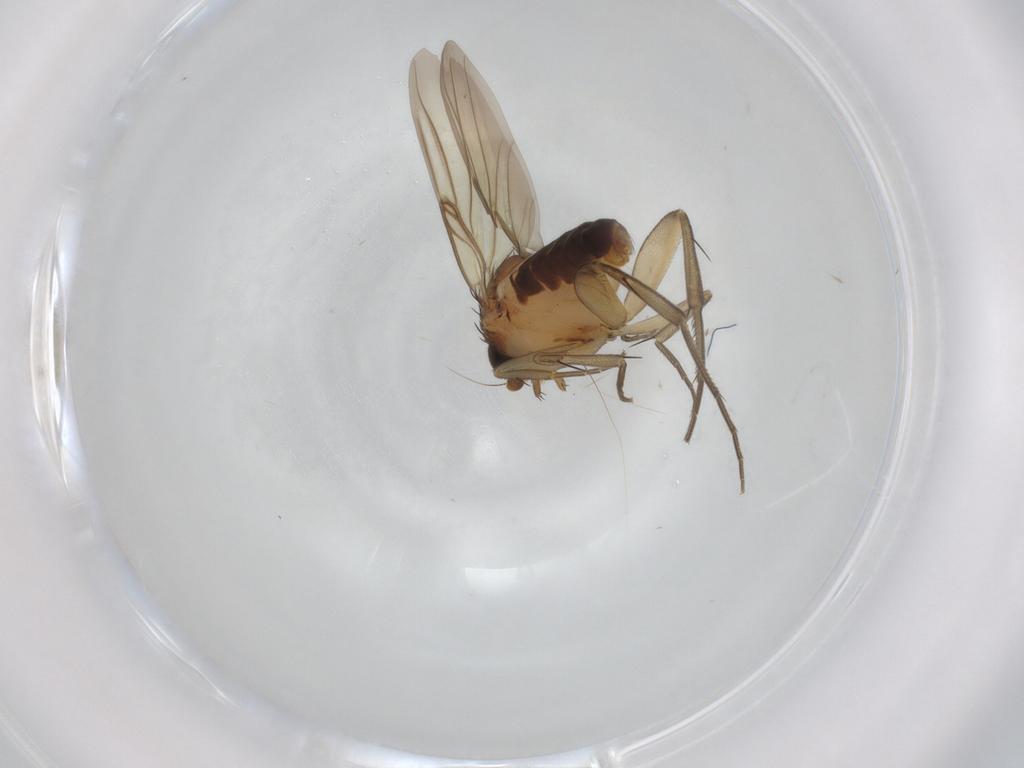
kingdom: Animalia
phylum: Arthropoda
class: Insecta
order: Diptera
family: Phoridae
